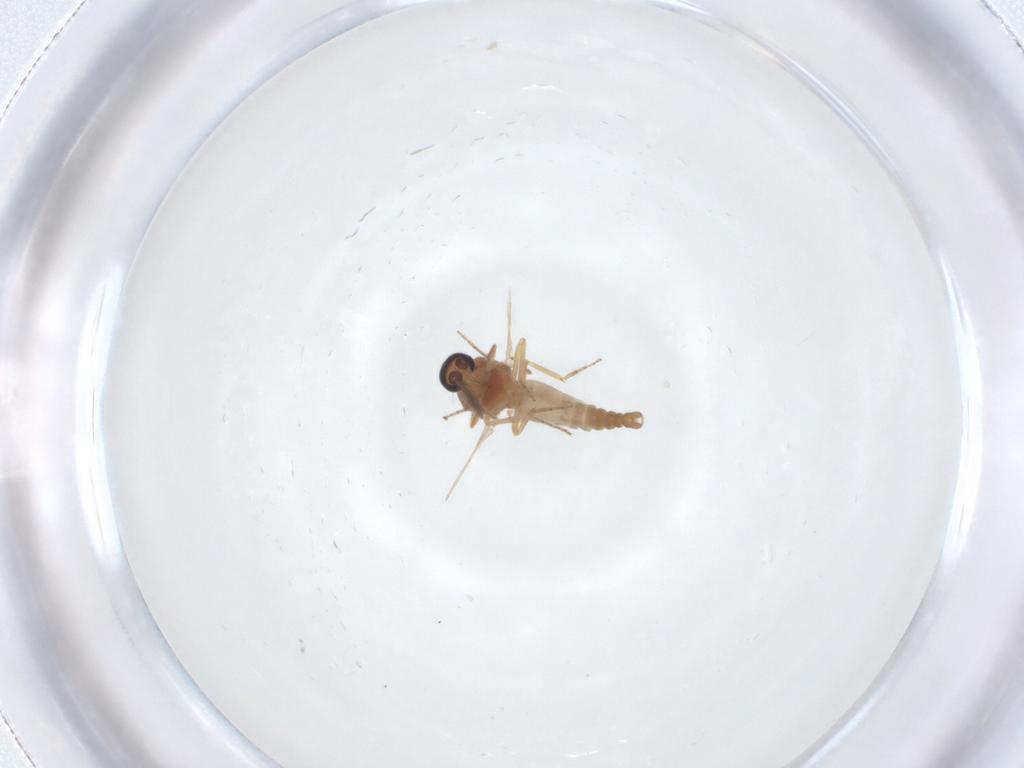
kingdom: Animalia
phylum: Arthropoda
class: Insecta
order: Diptera
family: Ceratopogonidae
